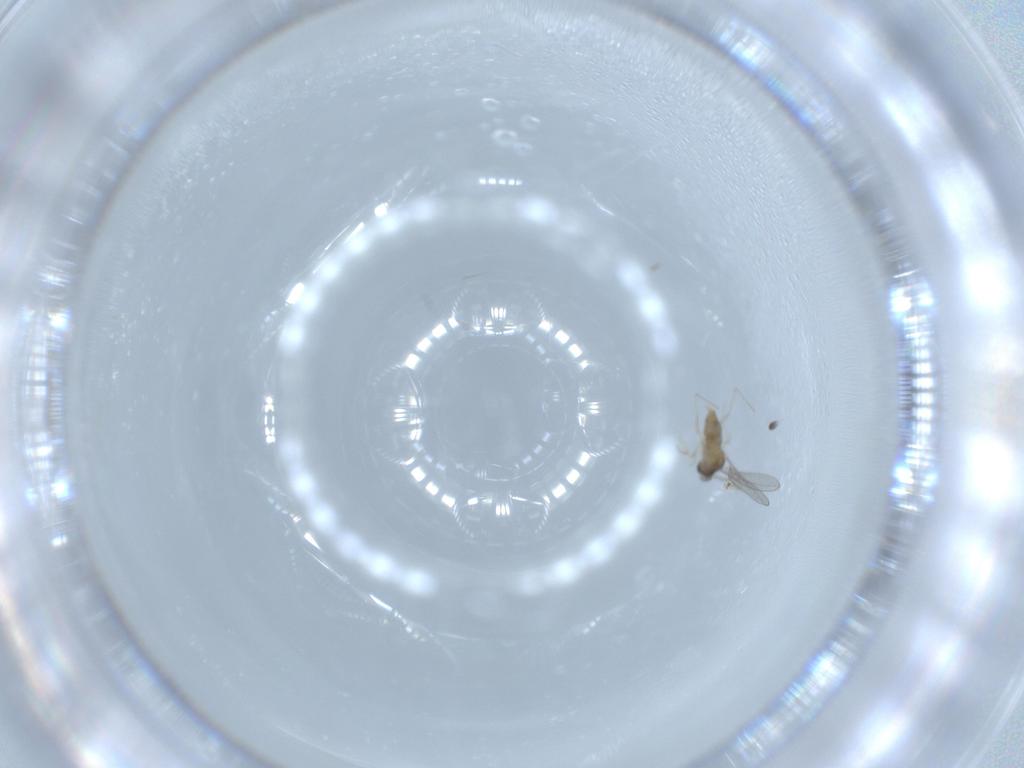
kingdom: Animalia
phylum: Arthropoda
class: Insecta
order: Diptera
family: Cecidomyiidae
